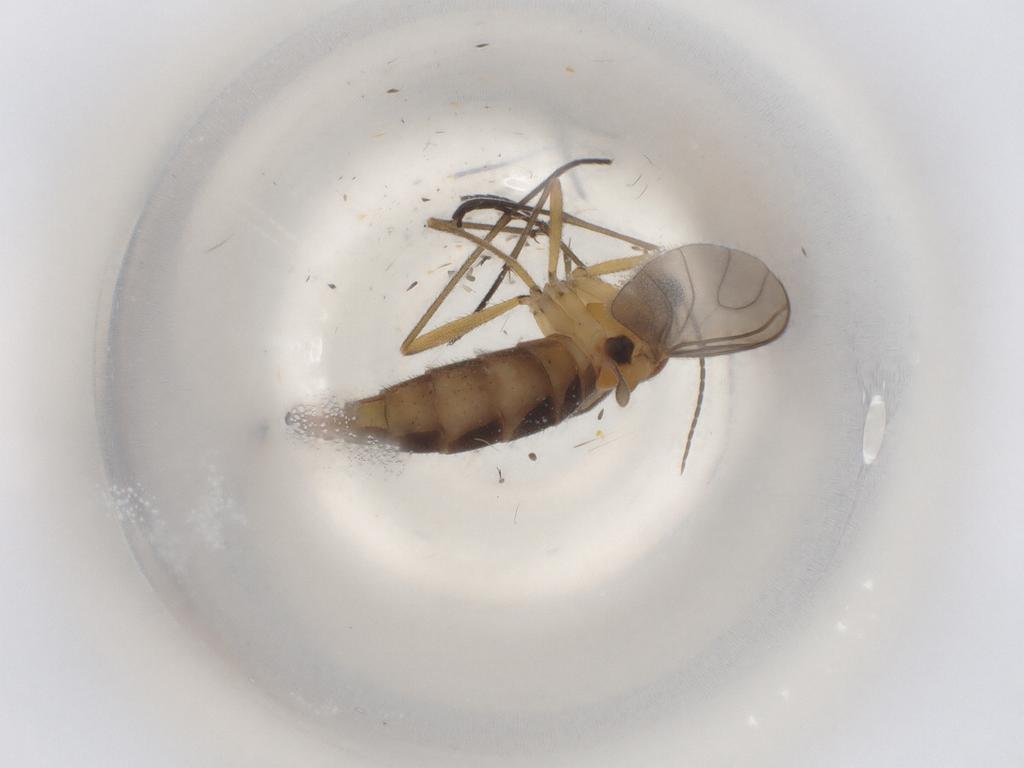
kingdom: Animalia
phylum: Arthropoda
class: Insecta
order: Diptera
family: Sciaridae
